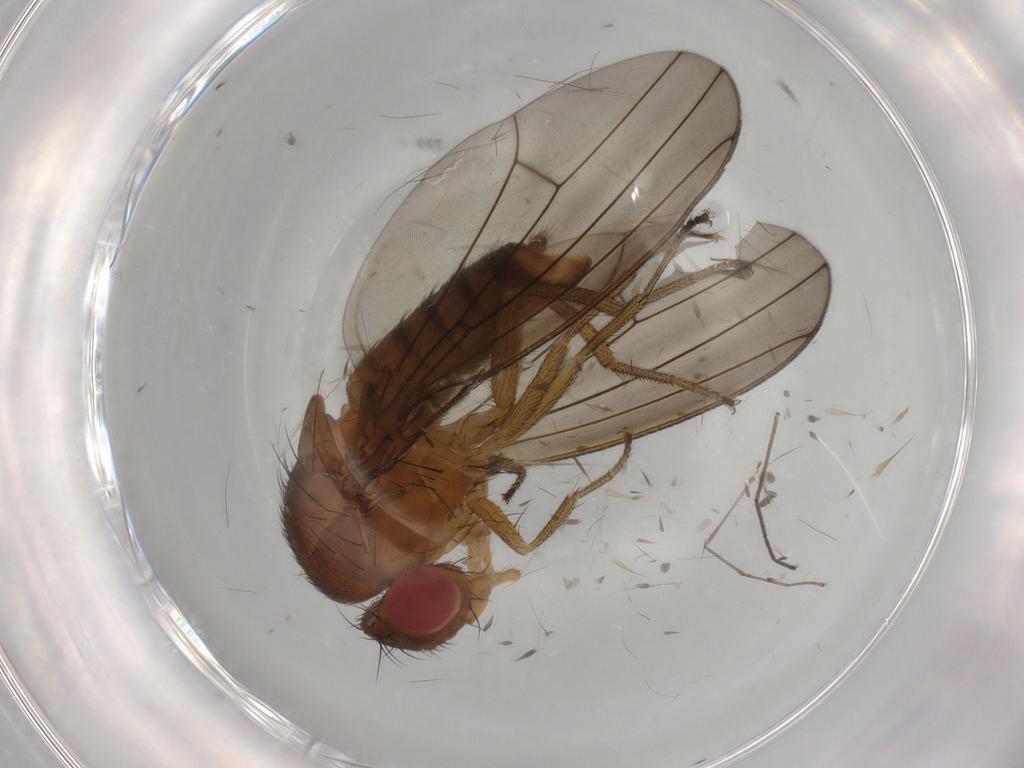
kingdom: Animalia
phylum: Arthropoda
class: Insecta
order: Diptera
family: Drosophilidae
